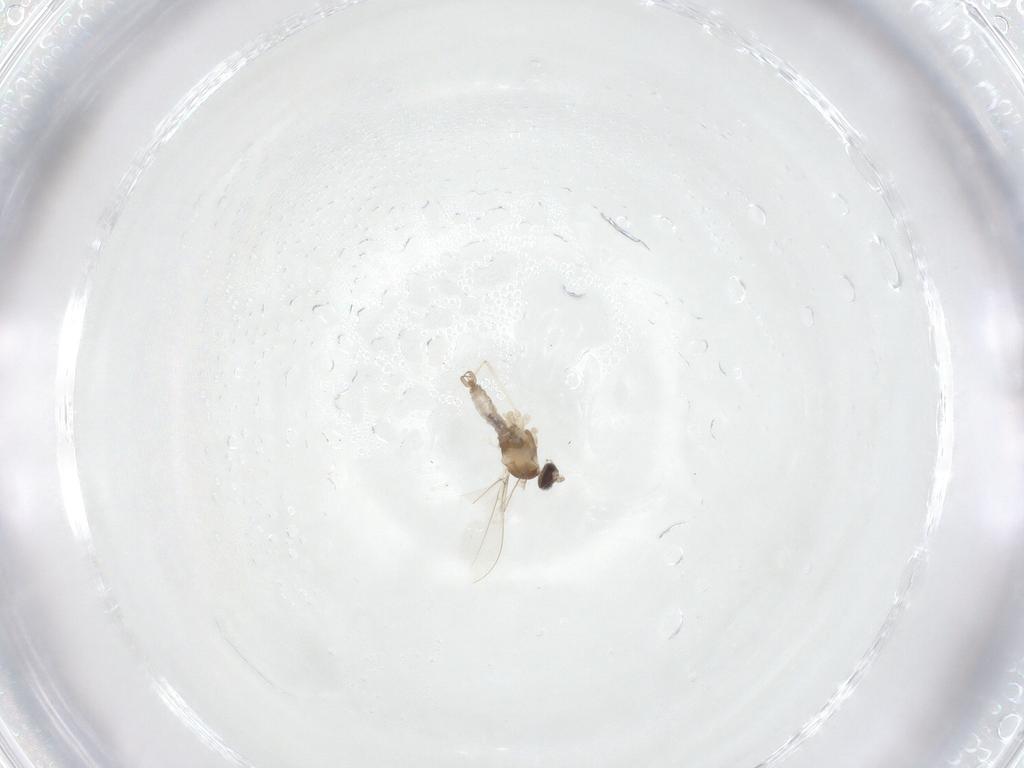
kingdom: Animalia
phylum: Arthropoda
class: Insecta
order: Diptera
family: Cecidomyiidae
